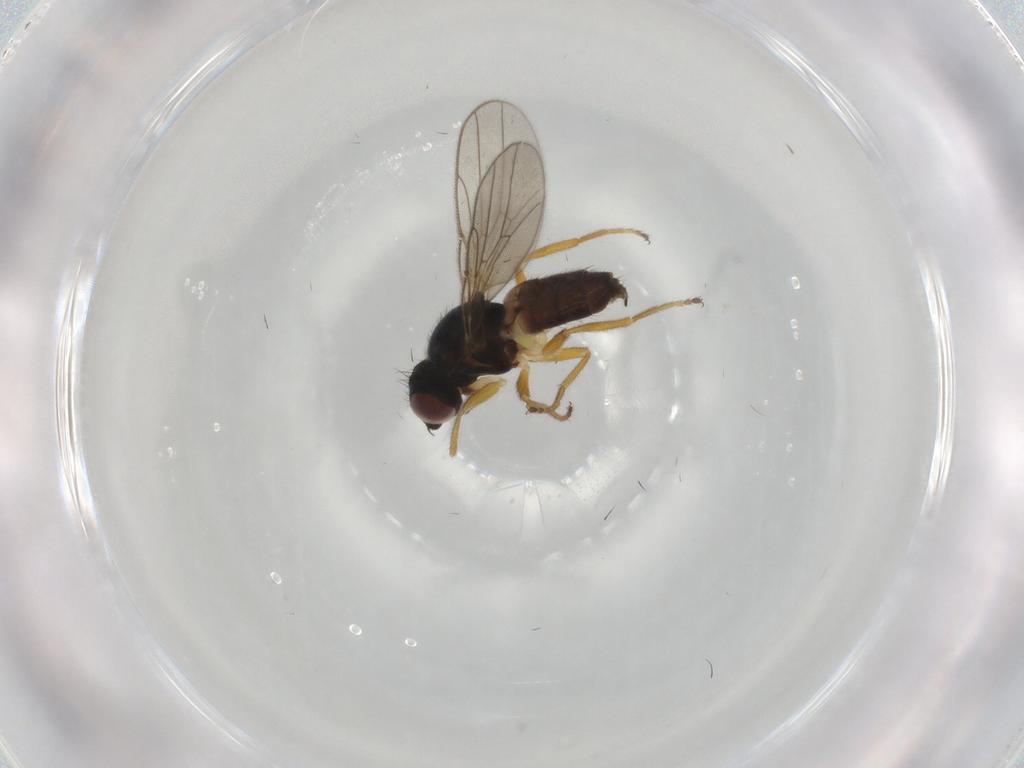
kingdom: Animalia
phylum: Arthropoda
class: Insecta
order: Diptera
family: Chloropidae
